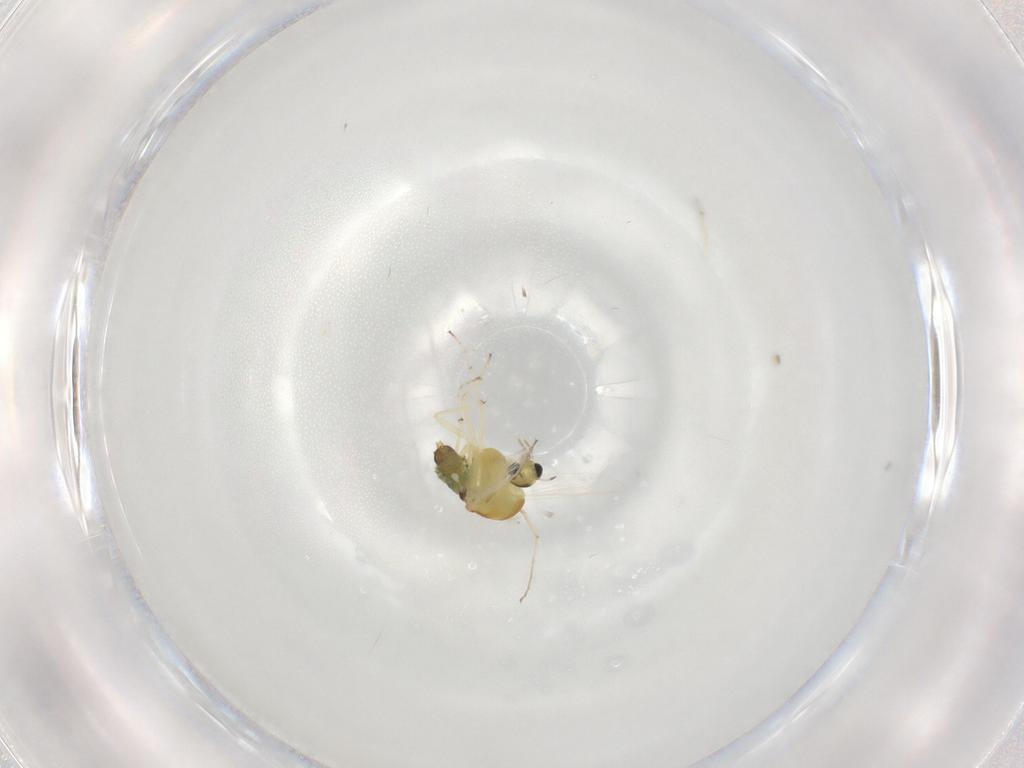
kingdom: Animalia
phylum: Arthropoda
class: Insecta
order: Diptera
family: Chironomidae
